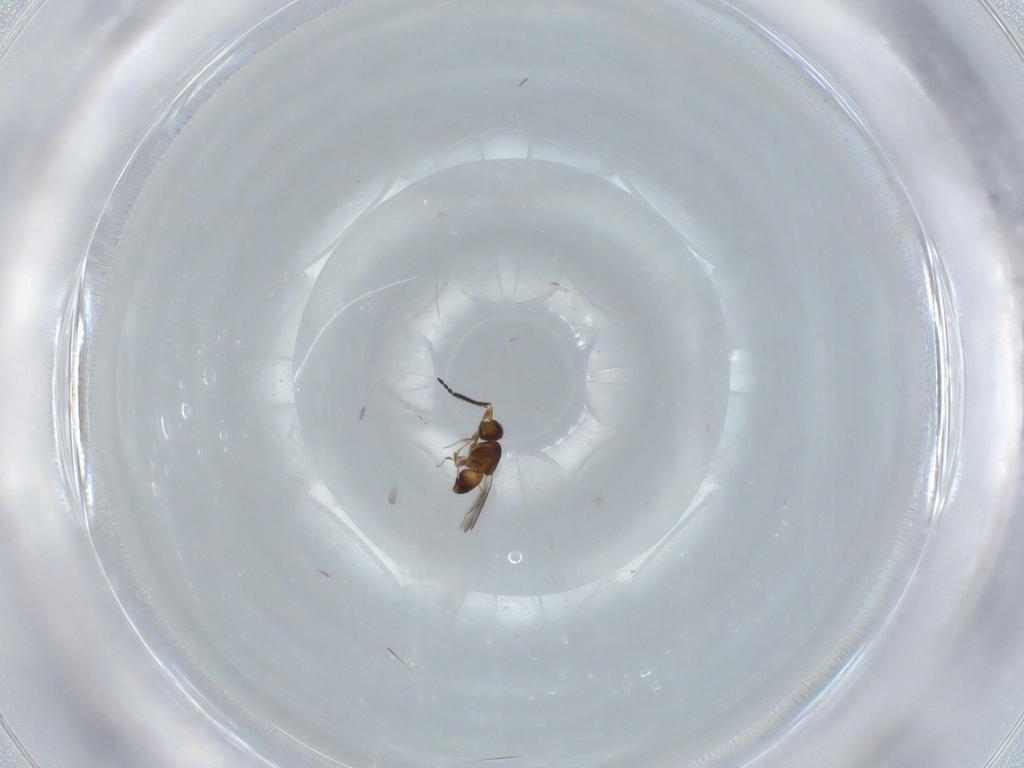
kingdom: Animalia
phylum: Arthropoda
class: Insecta
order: Hymenoptera
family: Ceraphronidae
